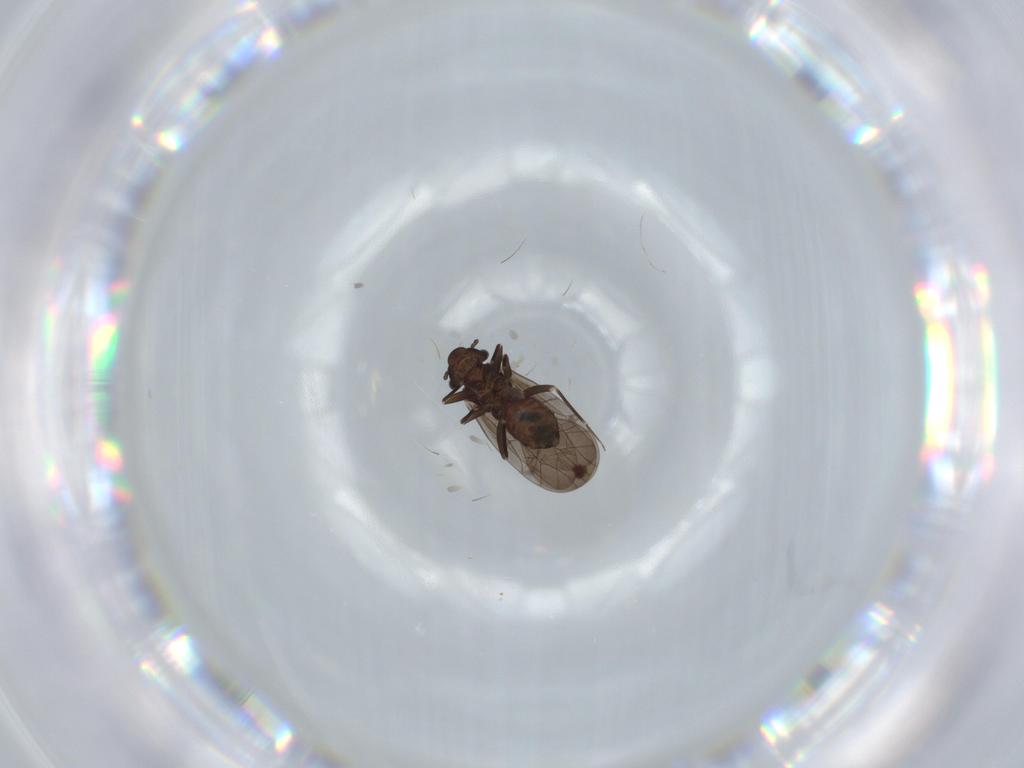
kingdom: Animalia
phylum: Arthropoda
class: Insecta
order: Psocodea
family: Lepidopsocidae
